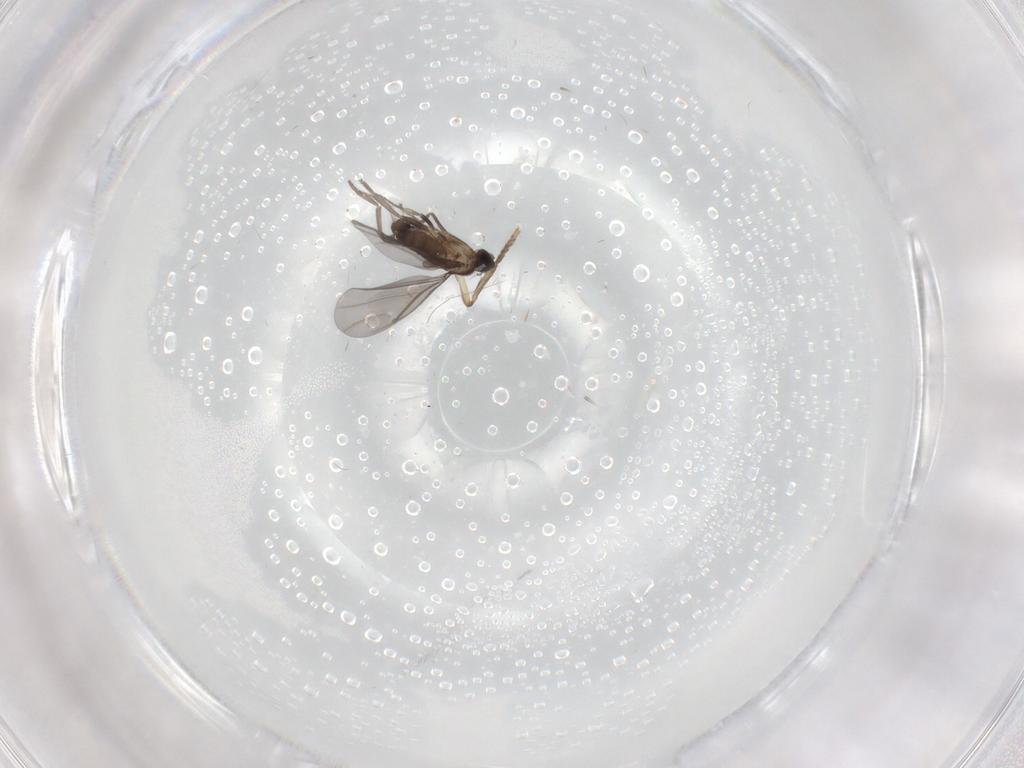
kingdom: Animalia
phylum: Arthropoda
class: Insecta
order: Diptera
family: Phoridae
